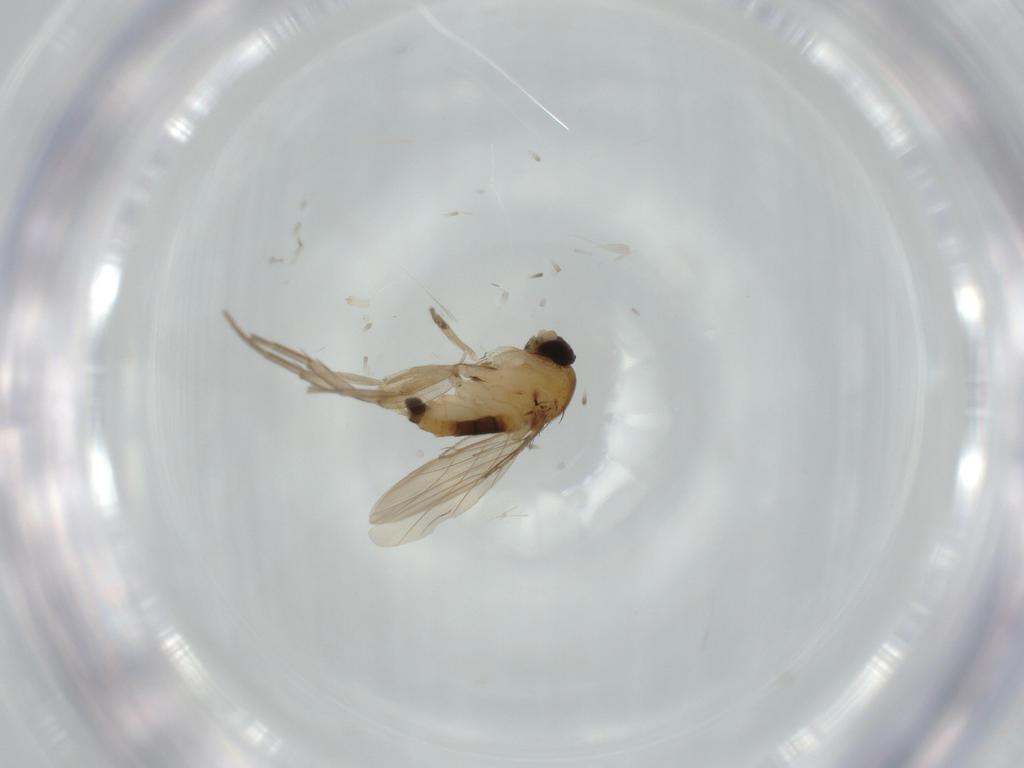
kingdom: Animalia
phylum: Arthropoda
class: Insecta
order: Diptera
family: Phoridae
